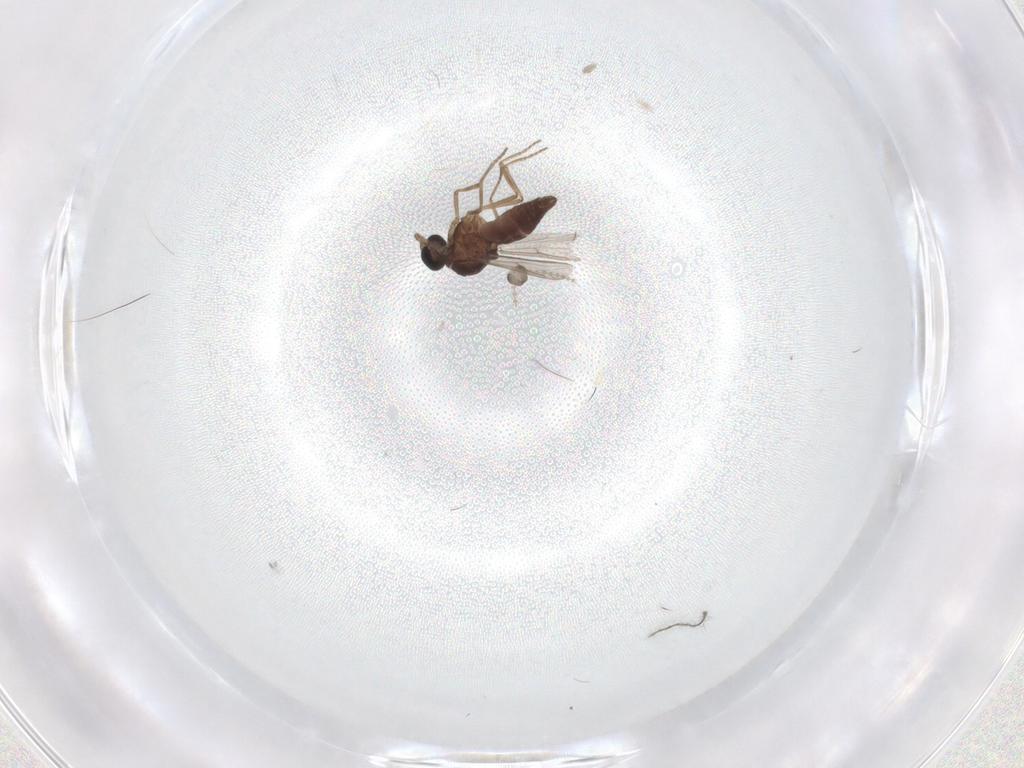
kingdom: Animalia
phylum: Arthropoda
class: Insecta
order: Diptera
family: Ceratopogonidae
